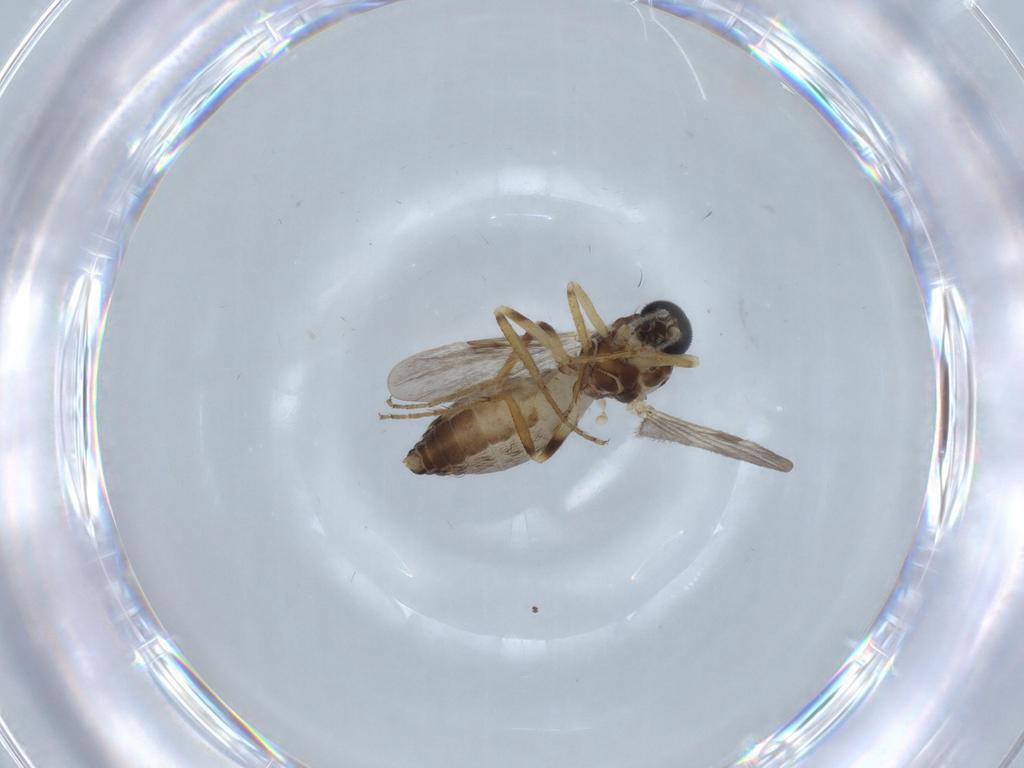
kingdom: Animalia
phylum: Arthropoda
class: Insecta
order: Diptera
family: Ceratopogonidae
